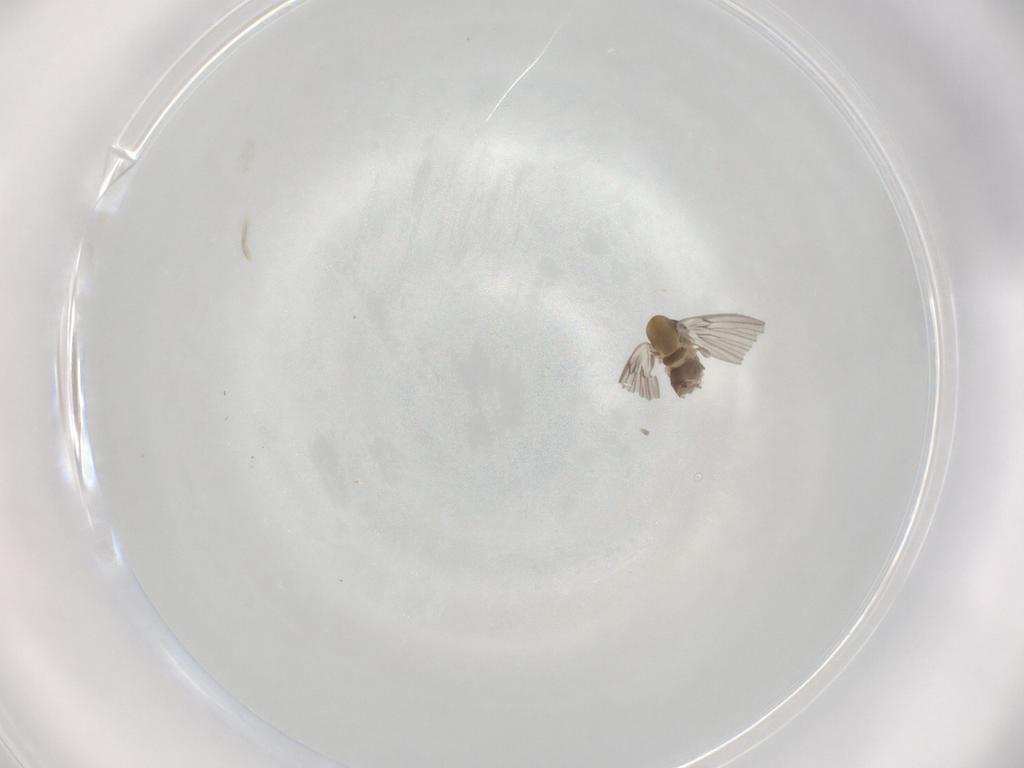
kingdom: Animalia
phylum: Arthropoda
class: Insecta
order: Diptera
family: Psychodidae
